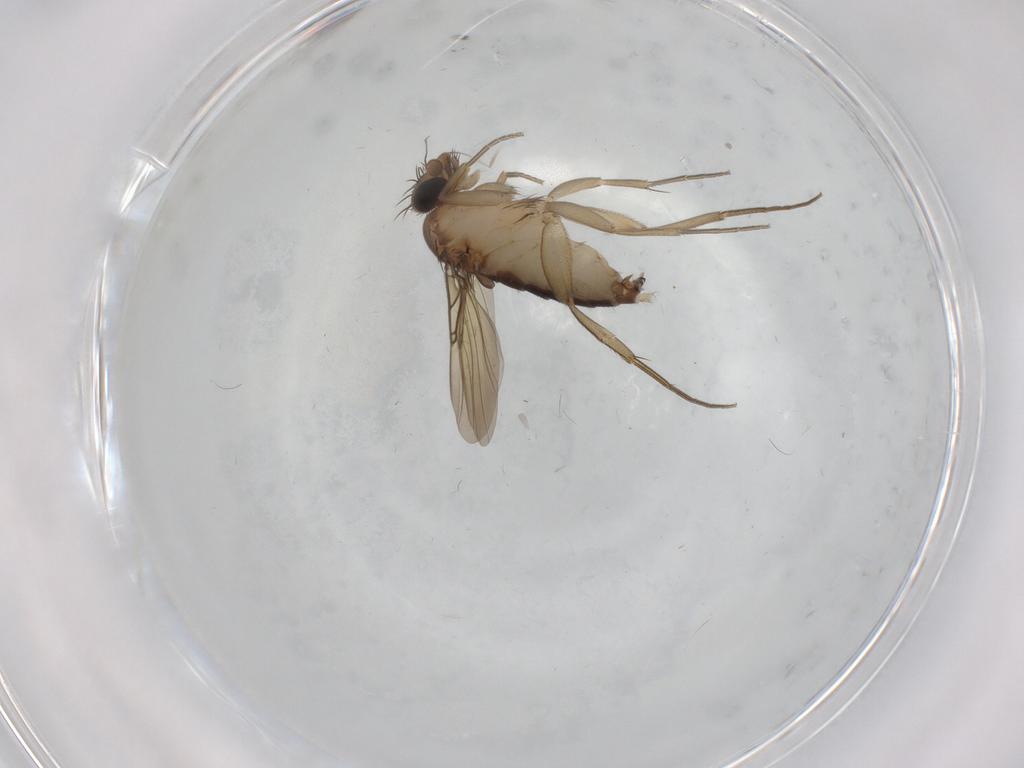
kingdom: Animalia
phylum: Arthropoda
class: Insecta
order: Diptera
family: Phoridae
